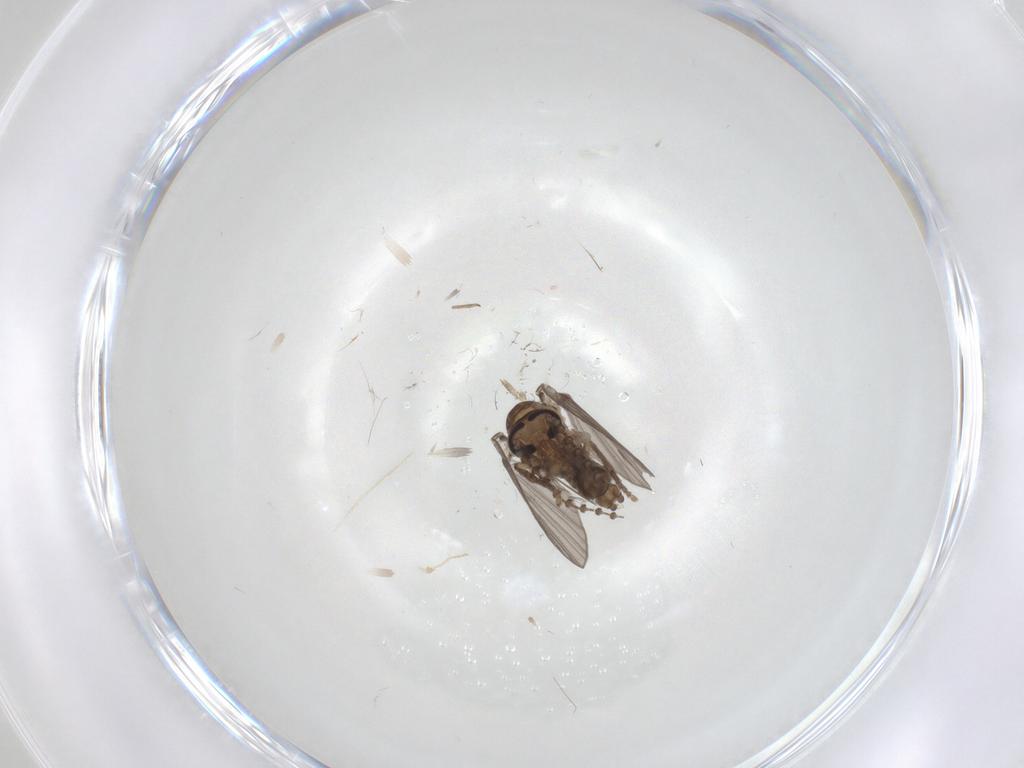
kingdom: Animalia
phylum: Arthropoda
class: Insecta
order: Diptera
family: Psychodidae
